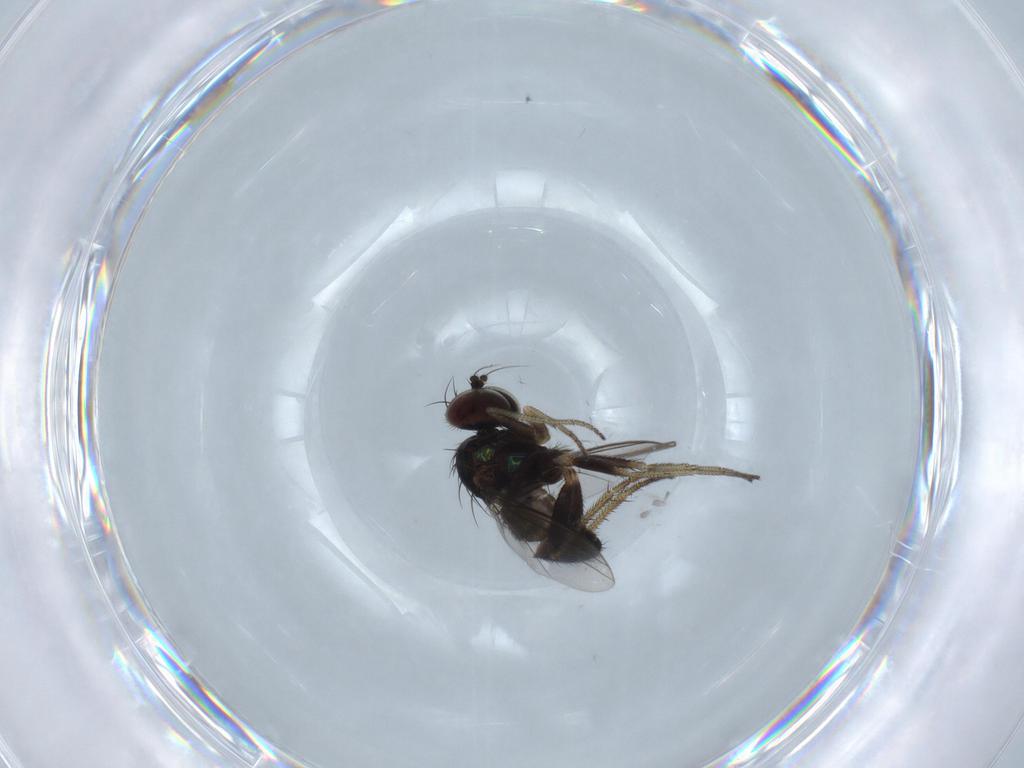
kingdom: Animalia
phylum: Arthropoda
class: Insecta
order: Diptera
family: Dolichopodidae
